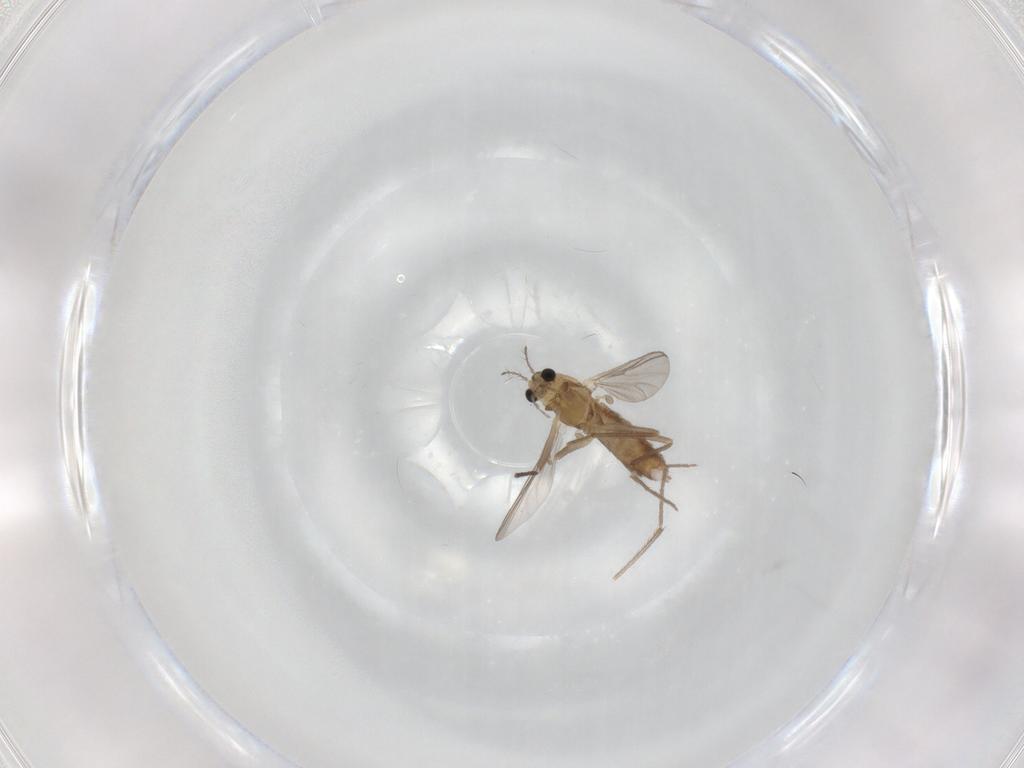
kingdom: Animalia
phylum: Arthropoda
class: Insecta
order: Diptera
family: Chironomidae
